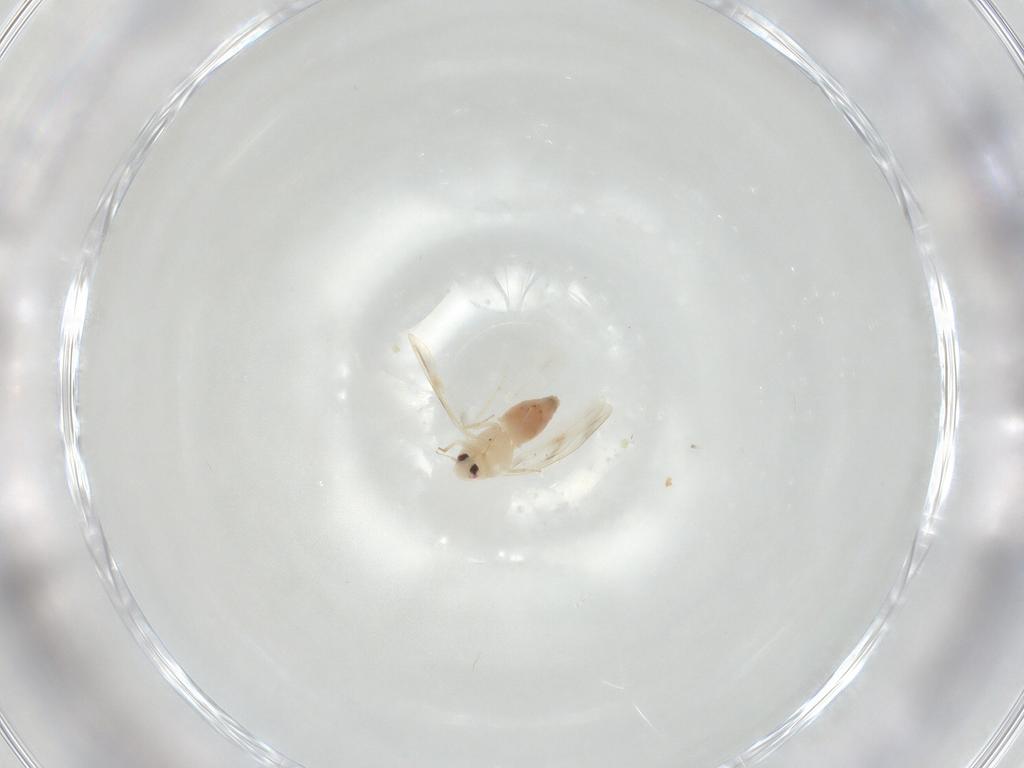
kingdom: Animalia
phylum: Arthropoda
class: Insecta
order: Hemiptera
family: Aleyrodidae
